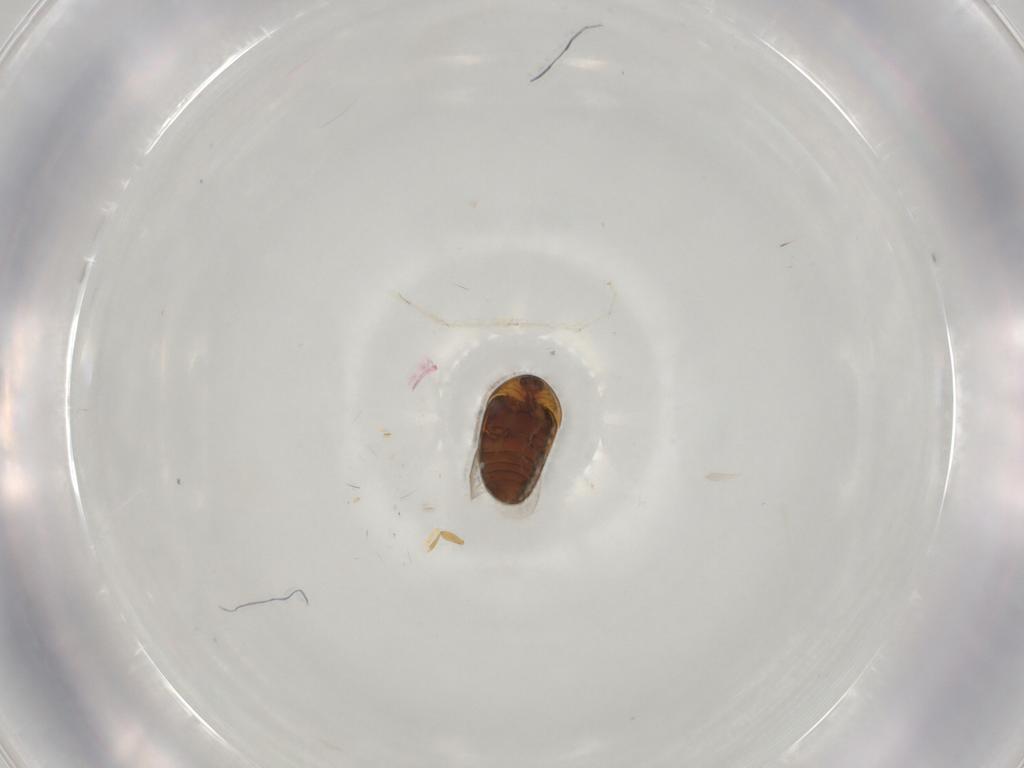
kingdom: Animalia
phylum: Arthropoda
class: Insecta
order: Coleoptera
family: Corylophidae
